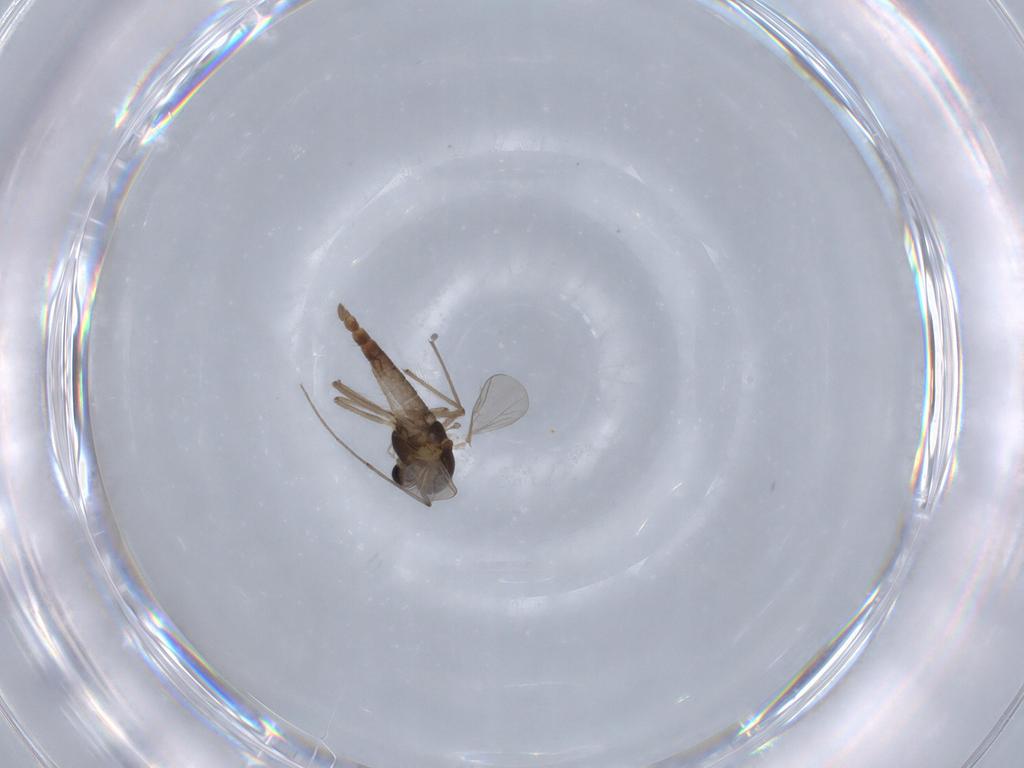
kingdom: Animalia
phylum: Arthropoda
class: Insecta
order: Diptera
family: Chironomidae
